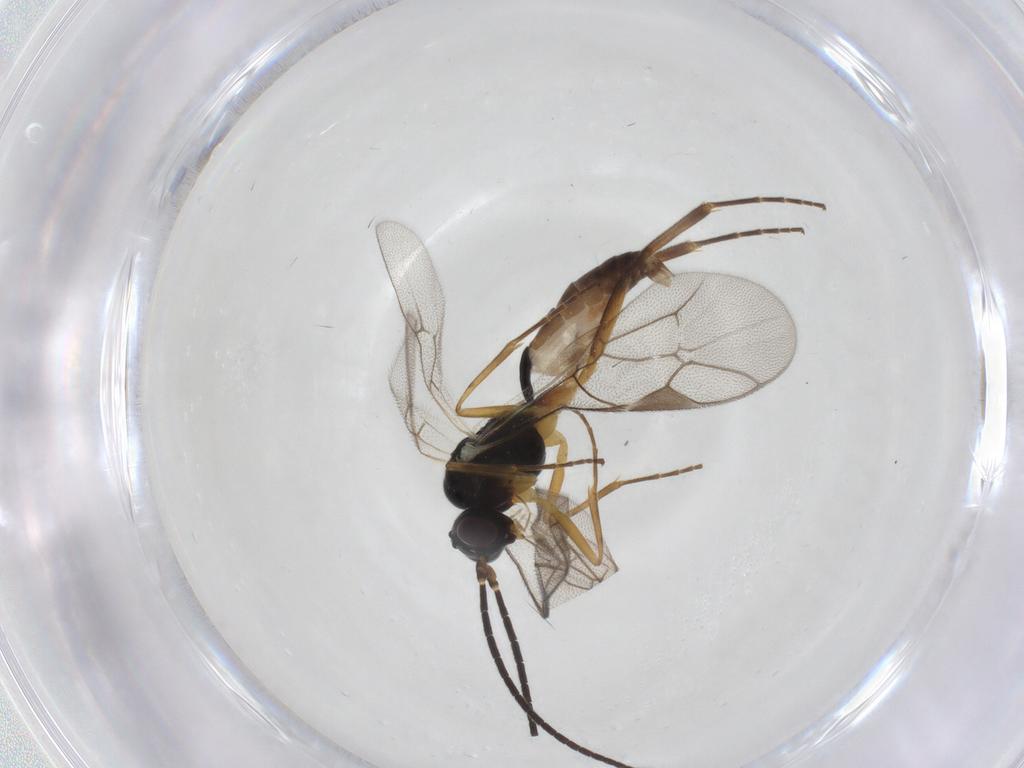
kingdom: Animalia
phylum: Arthropoda
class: Insecta
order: Hymenoptera
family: Ichneumonidae
